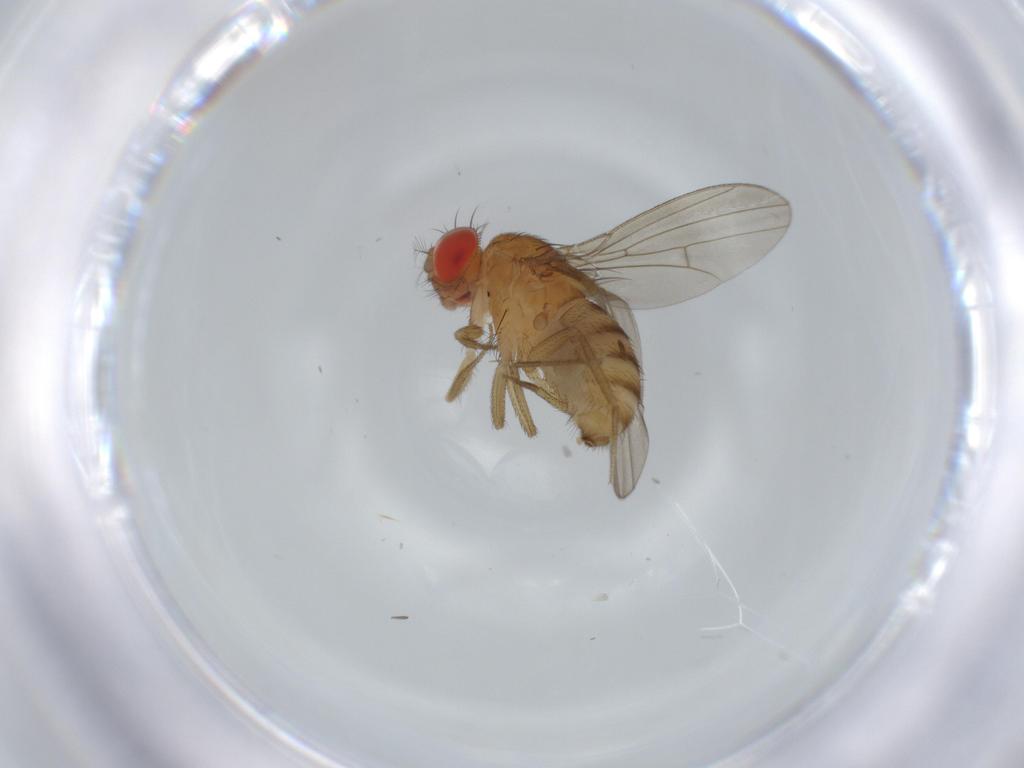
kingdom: Animalia
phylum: Arthropoda
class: Insecta
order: Diptera
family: Drosophilidae
